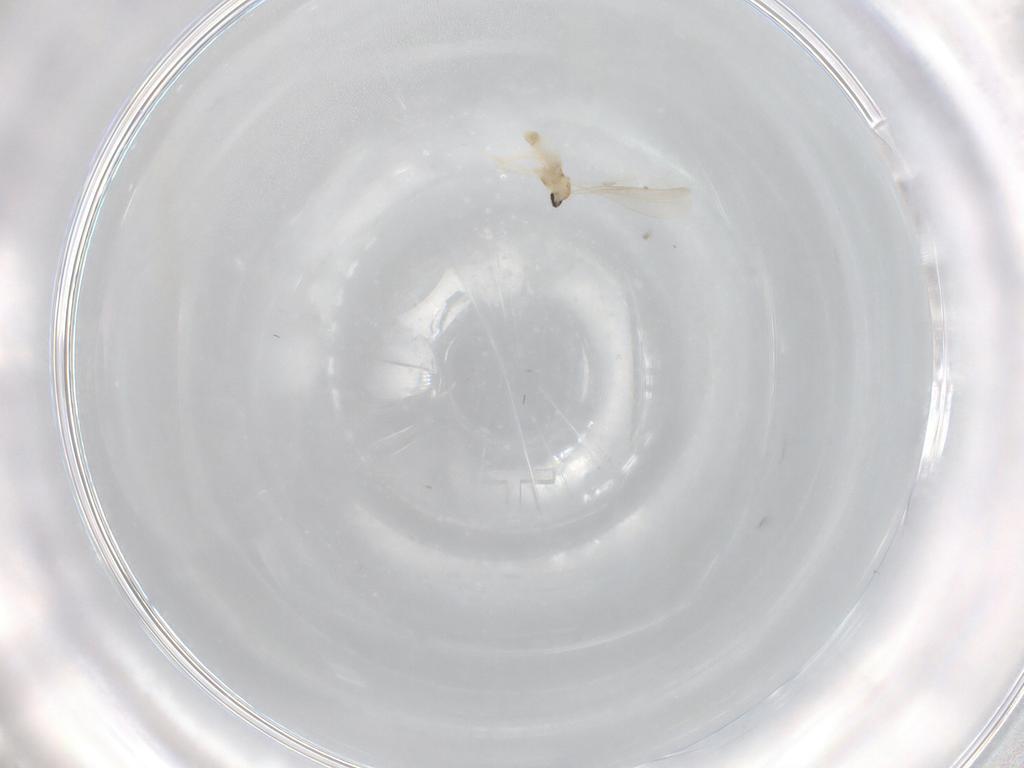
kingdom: Animalia
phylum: Arthropoda
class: Insecta
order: Diptera
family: Cecidomyiidae
